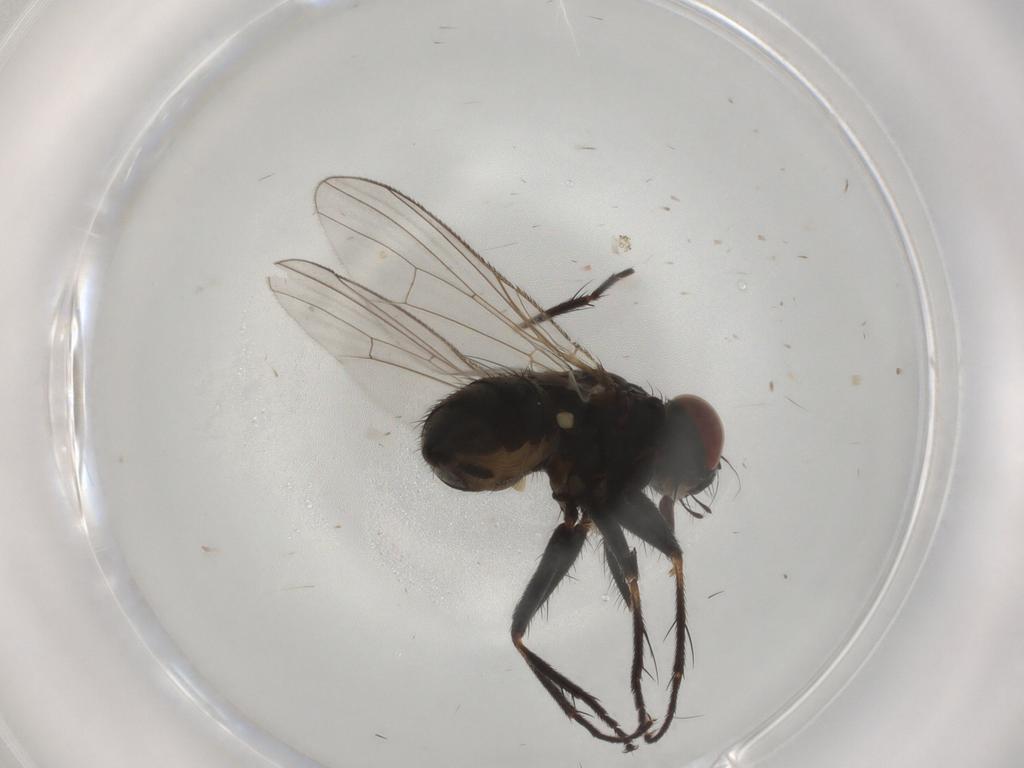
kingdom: Animalia
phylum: Arthropoda
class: Insecta
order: Diptera
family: Muscidae
